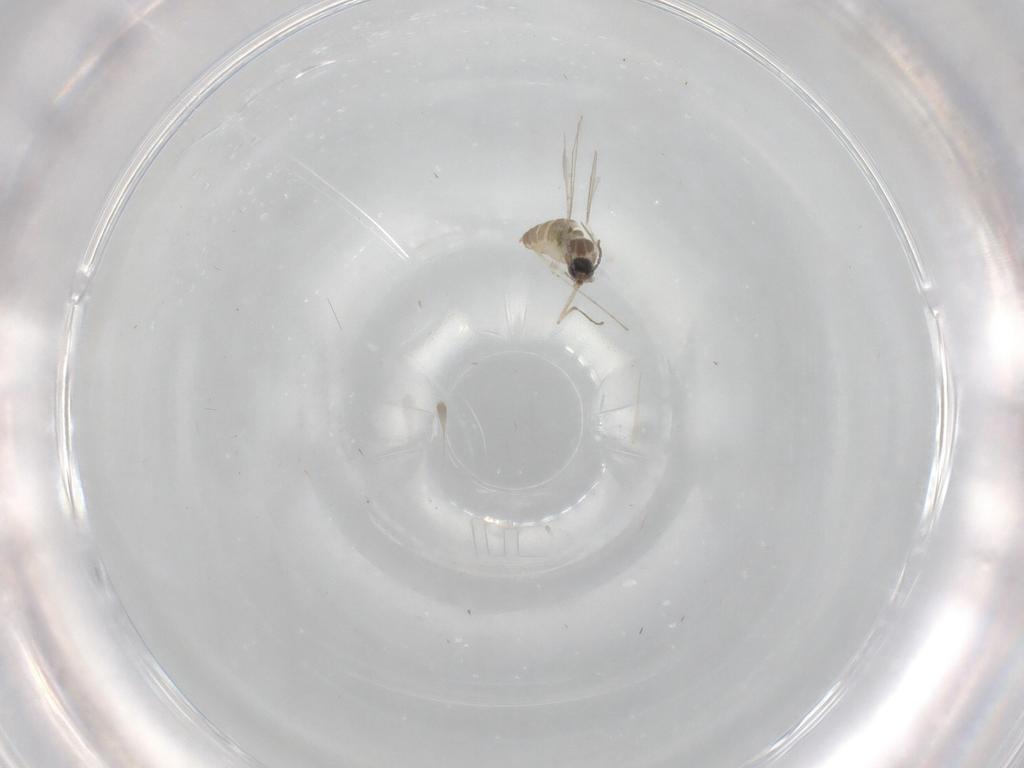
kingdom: Animalia
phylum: Arthropoda
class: Insecta
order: Diptera
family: Cecidomyiidae
